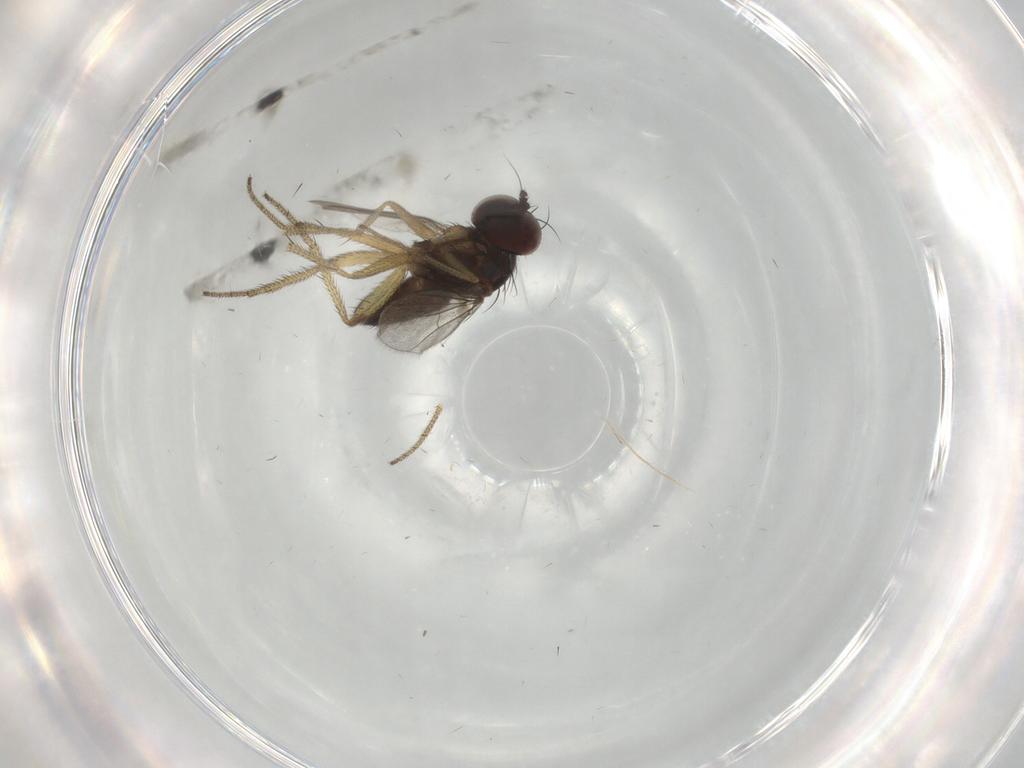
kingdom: Animalia
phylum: Arthropoda
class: Insecta
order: Diptera
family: Dolichopodidae
